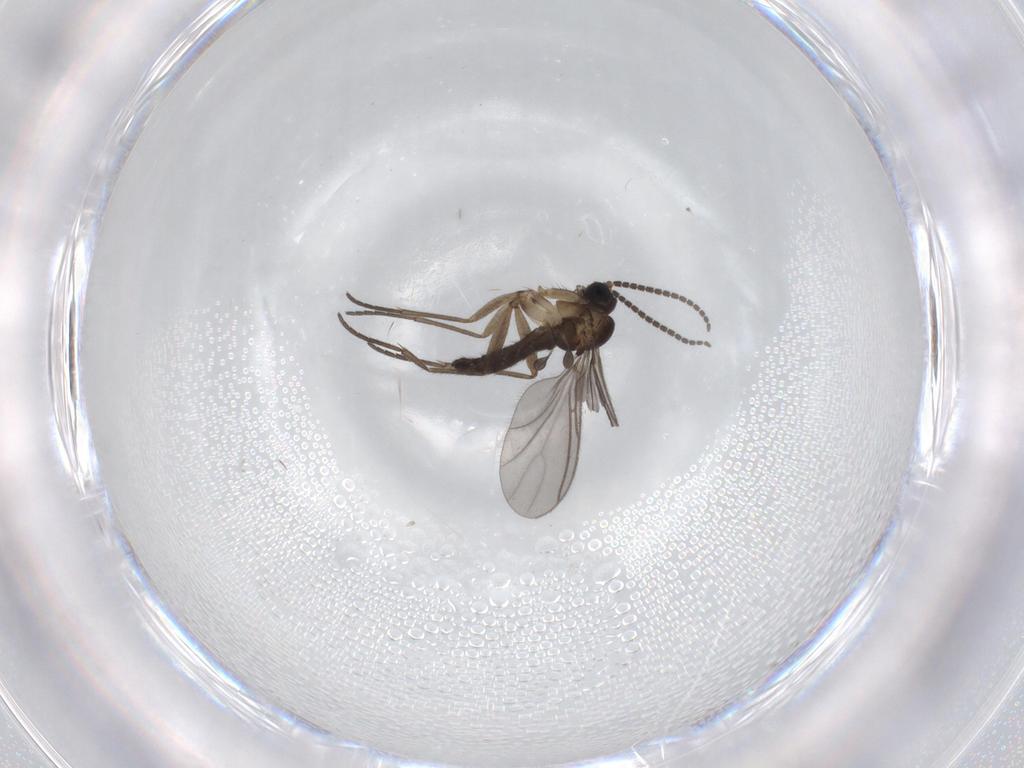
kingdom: Animalia
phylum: Arthropoda
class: Insecta
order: Diptera
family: Sciaridae
